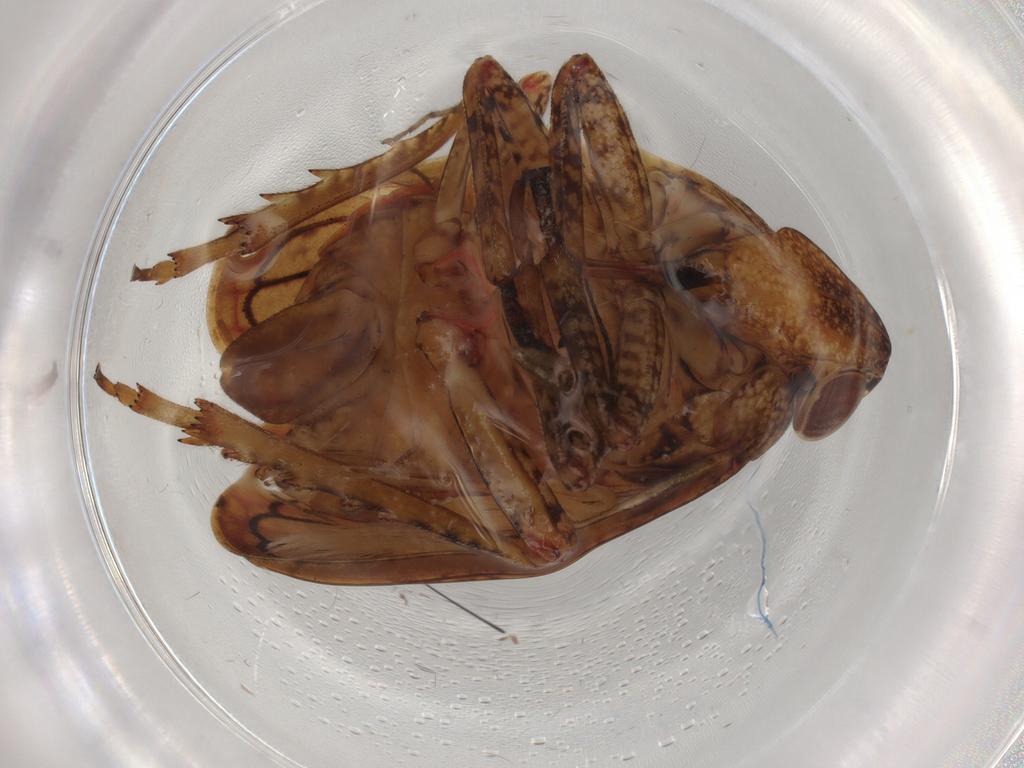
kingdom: Animalia
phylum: Arthropoda
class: Insecta
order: Hemiptera
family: Tropiduchidae
